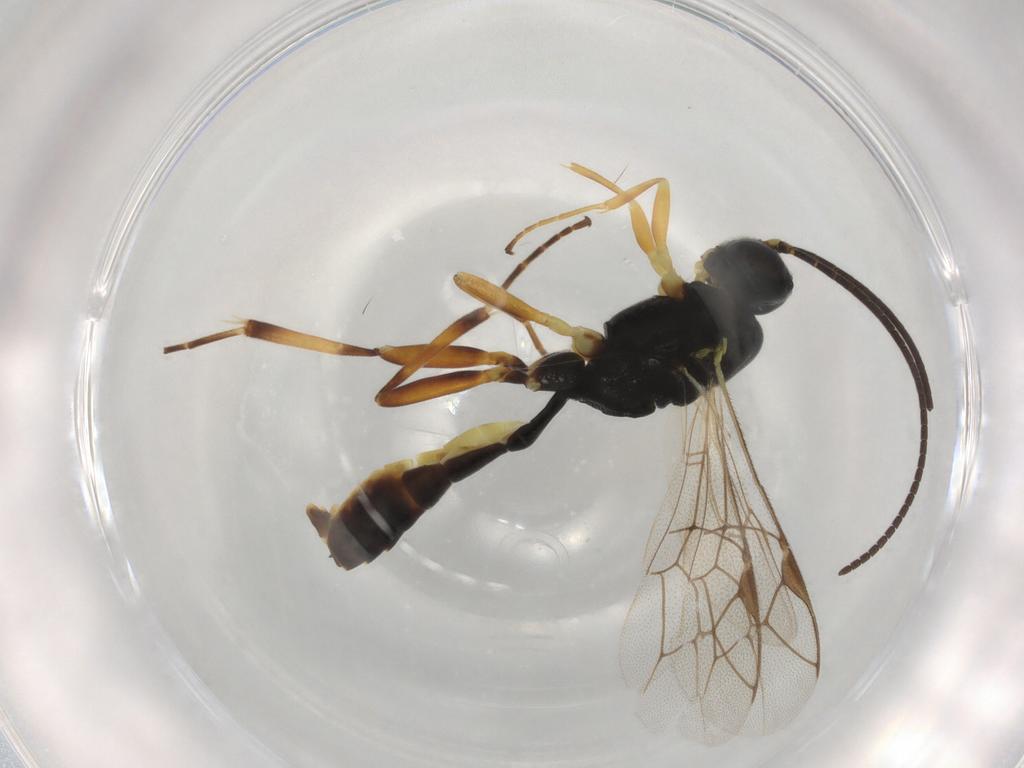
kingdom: Animalia
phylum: Arthropoda
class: Insecta
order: Hymenoptera
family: Ichneumonidae
